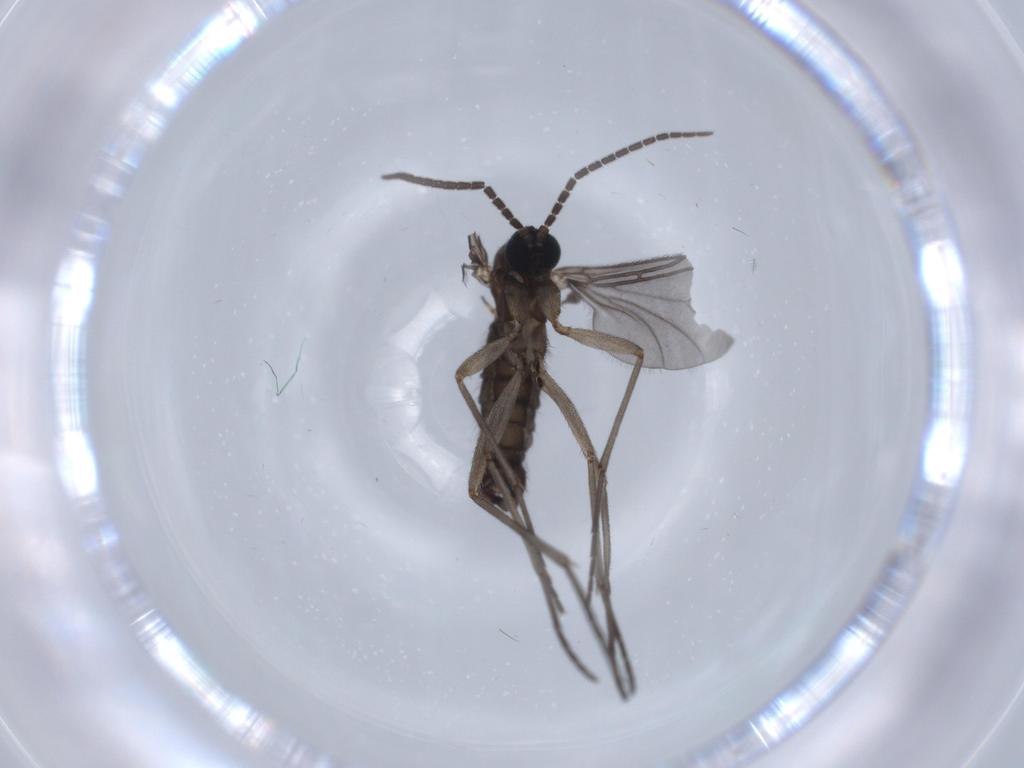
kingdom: Animalia
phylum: Arthropoda
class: Insecta
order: Diptera
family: Sciaridae
